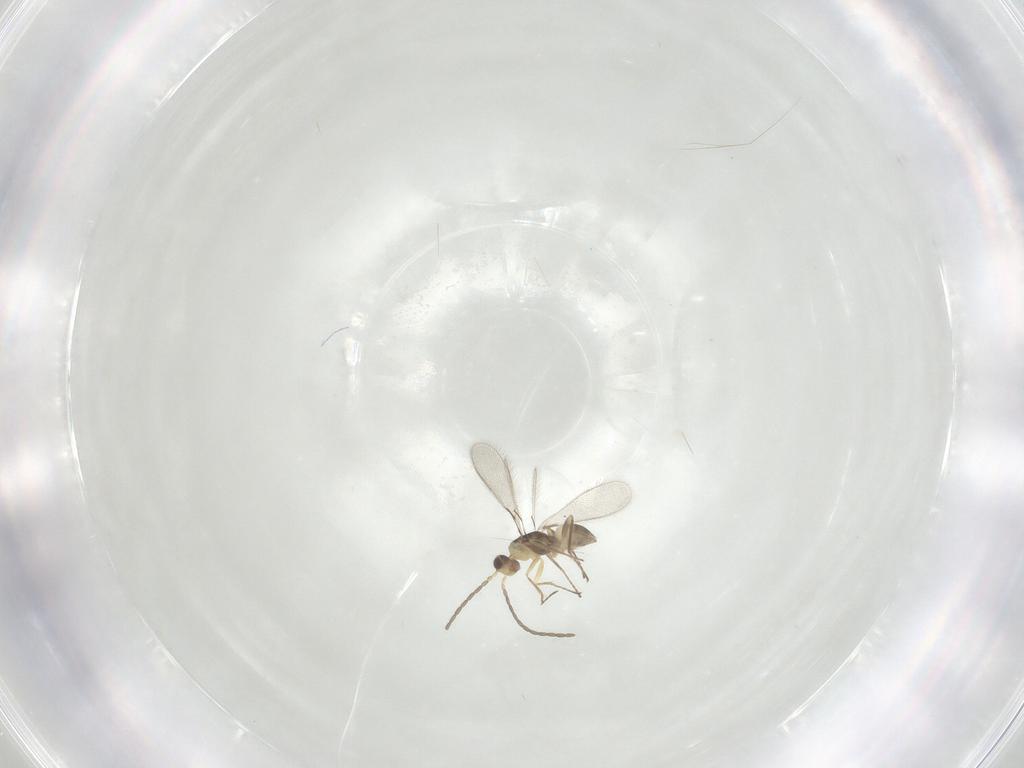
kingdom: Animalia
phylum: Arthropoda
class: Insecta
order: Hymenoptera
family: Mymaridae
